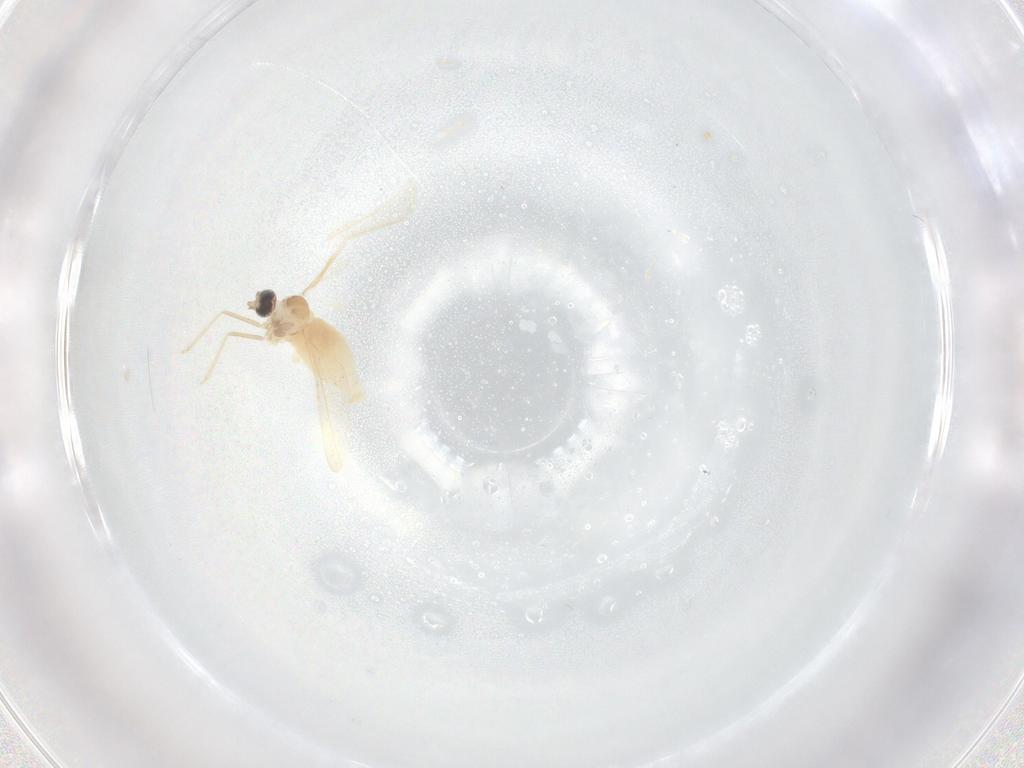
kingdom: Animalia
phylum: Arthropoda
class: Insecta
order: Diptera
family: Cecidomyiidae
